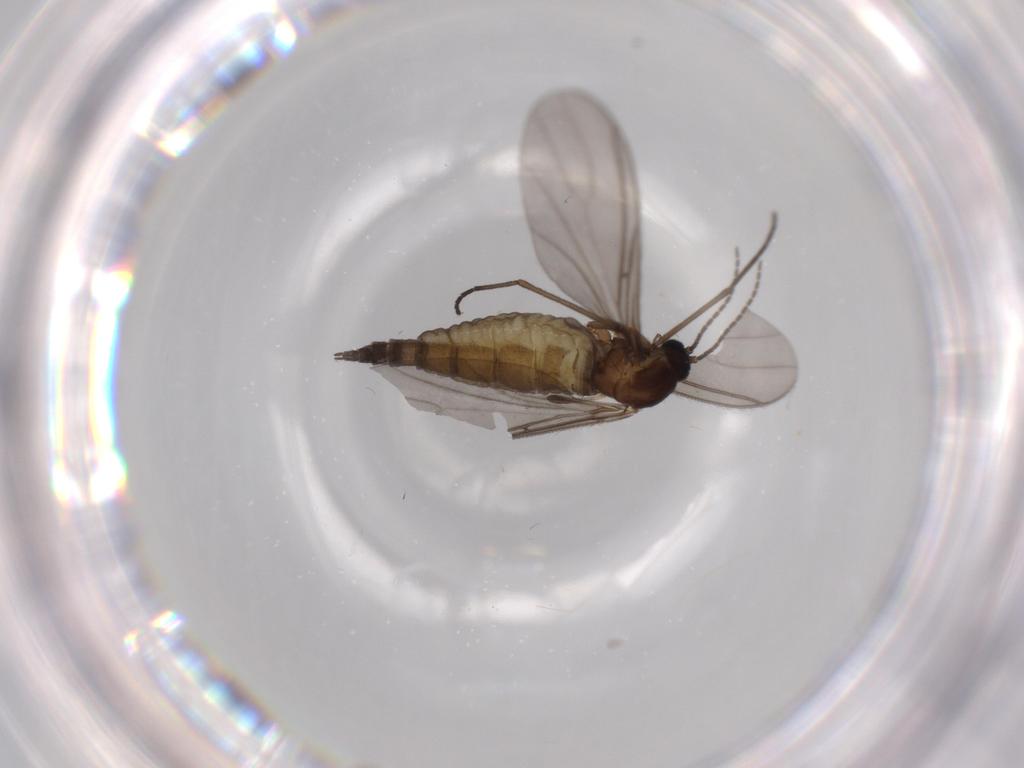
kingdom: Animalia
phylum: Arthropoda
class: Insecta
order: Diptera
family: Sciaridae
